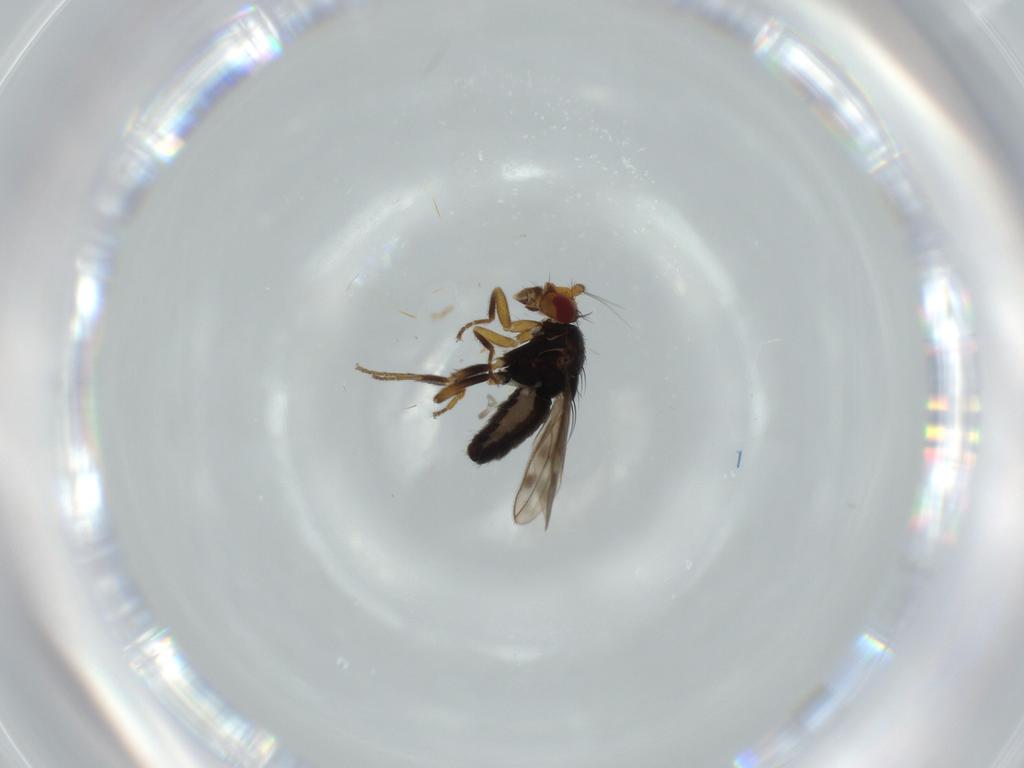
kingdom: Animalia
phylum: Arthropoda
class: Insecta
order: Diptera
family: Sphaeroceridae
